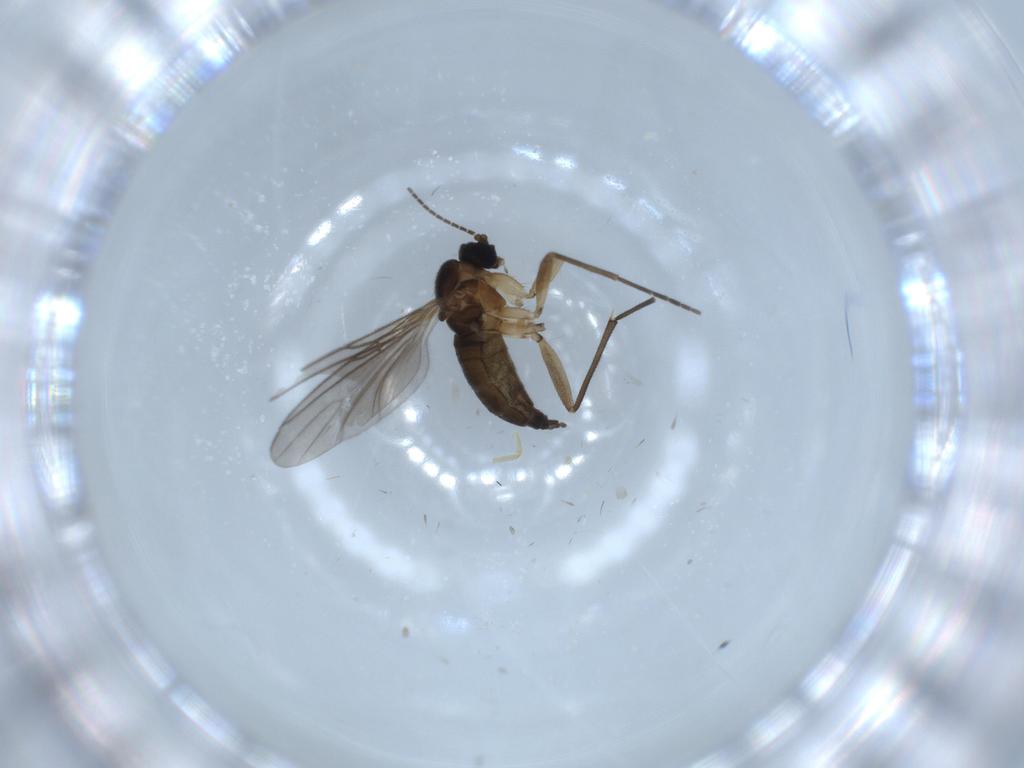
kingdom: Animalia
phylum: Arthropoda
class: Insecta
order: Diptera
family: Sciaridae
